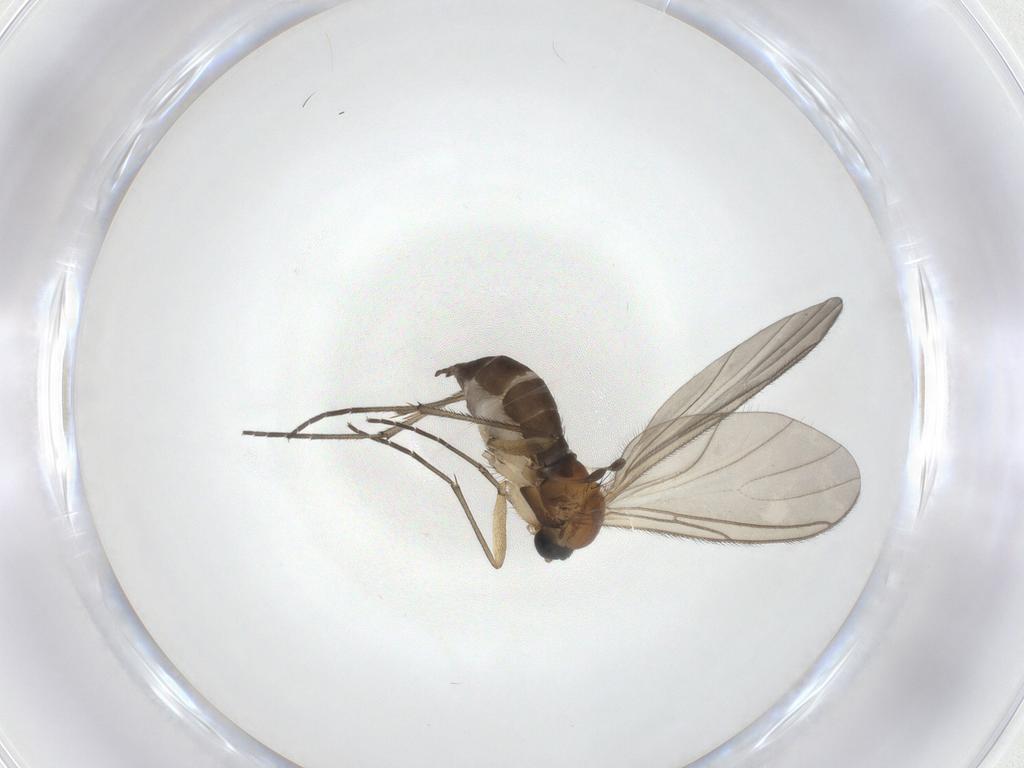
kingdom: Animalia
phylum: Arthropoda
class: Insecta
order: Diptera
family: Sciaridae
